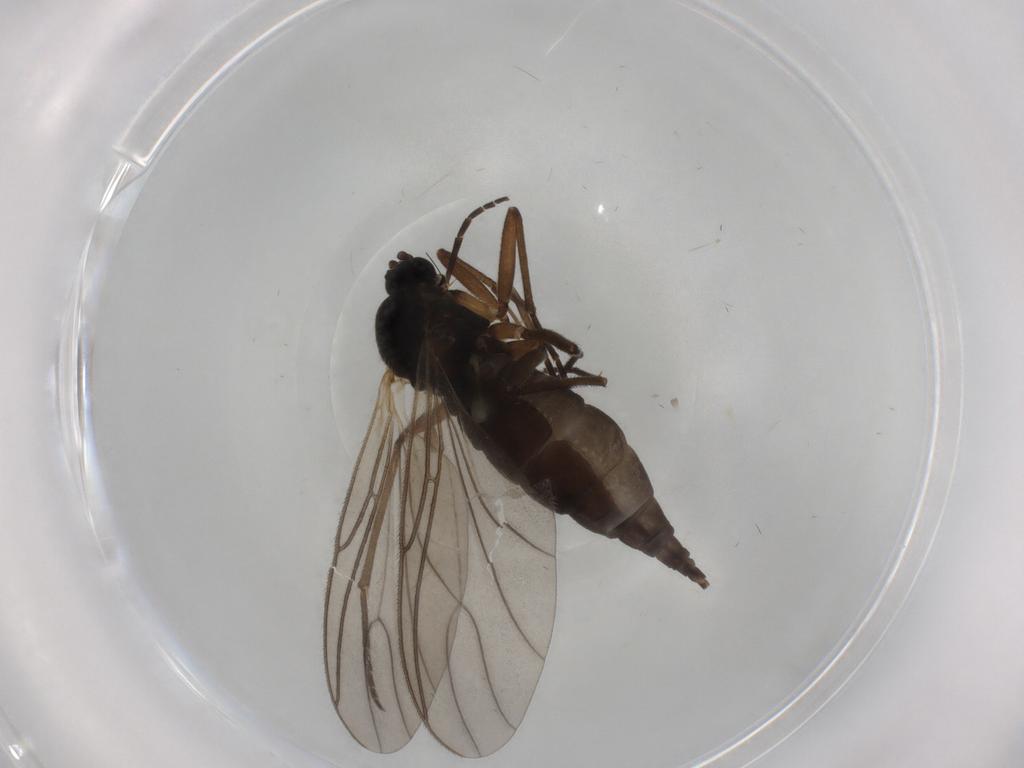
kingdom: Animalia
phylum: Arthropoda
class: Insecta
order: Diptera
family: Sciaridae
